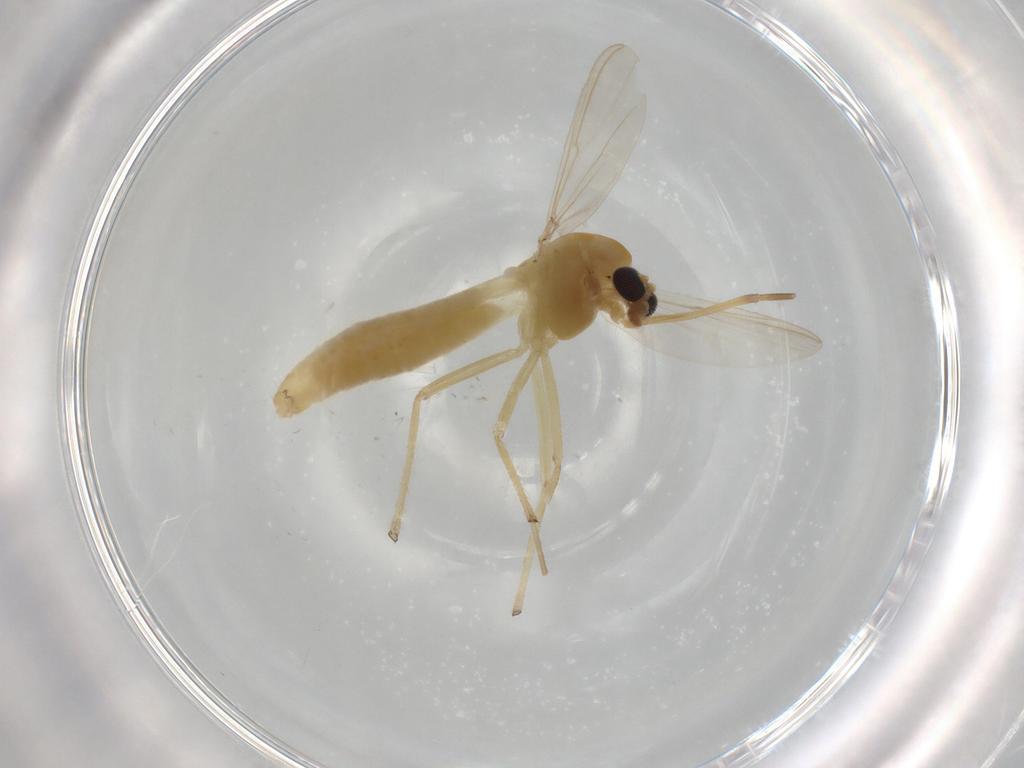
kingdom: Animalia
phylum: Arthropoda
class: Insecta
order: Diptera
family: Chironomidae
